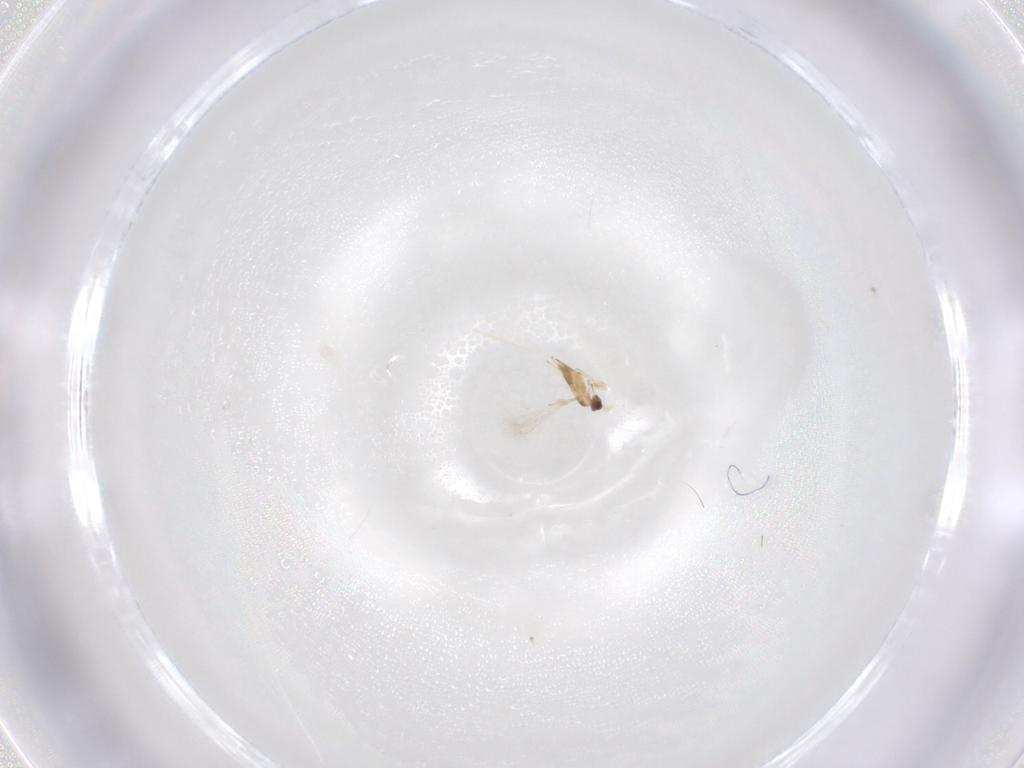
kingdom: Animalia
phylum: Arthropoda
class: Insecta
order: Hymenoptera
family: Mymaridae
